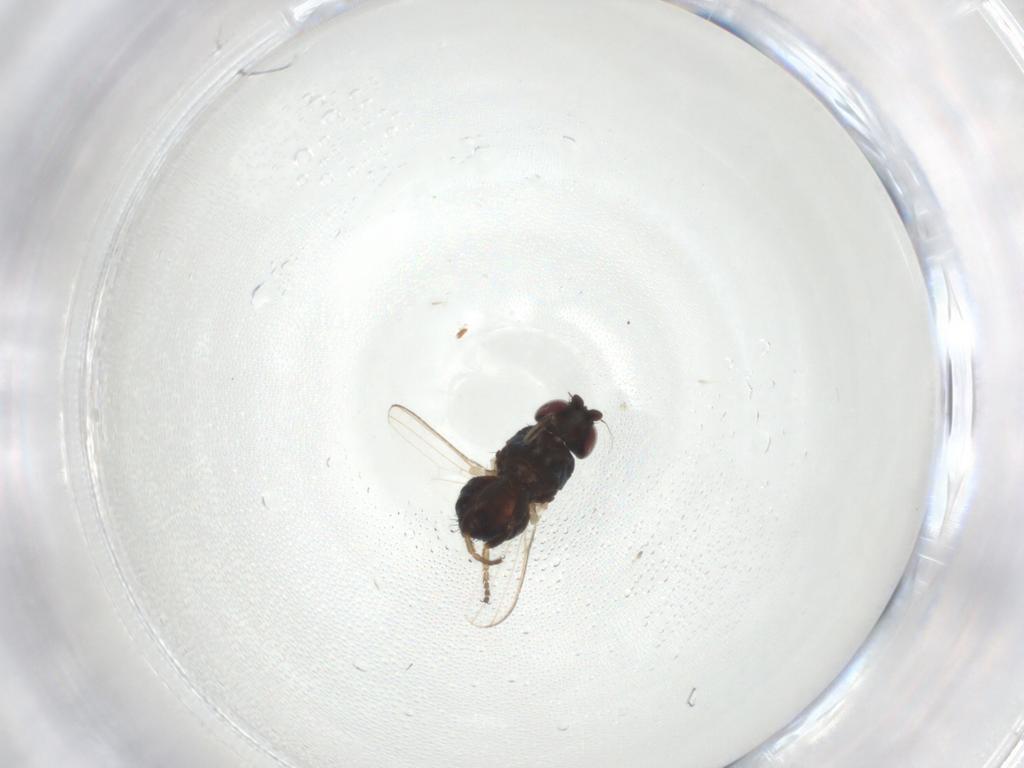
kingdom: Animalia
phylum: Arthropoda
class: Insecta
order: Diptera
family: Milichiidae
